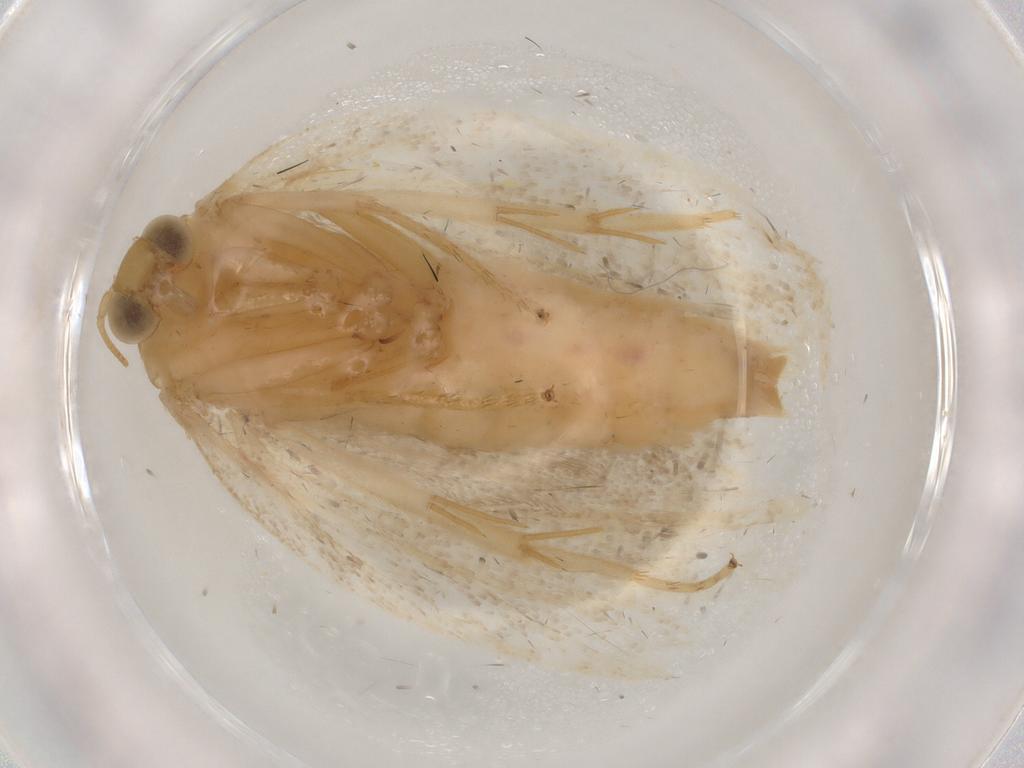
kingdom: Animalia
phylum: Arthropoda
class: Insecta
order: Lepidoptera
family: Tortricidae
